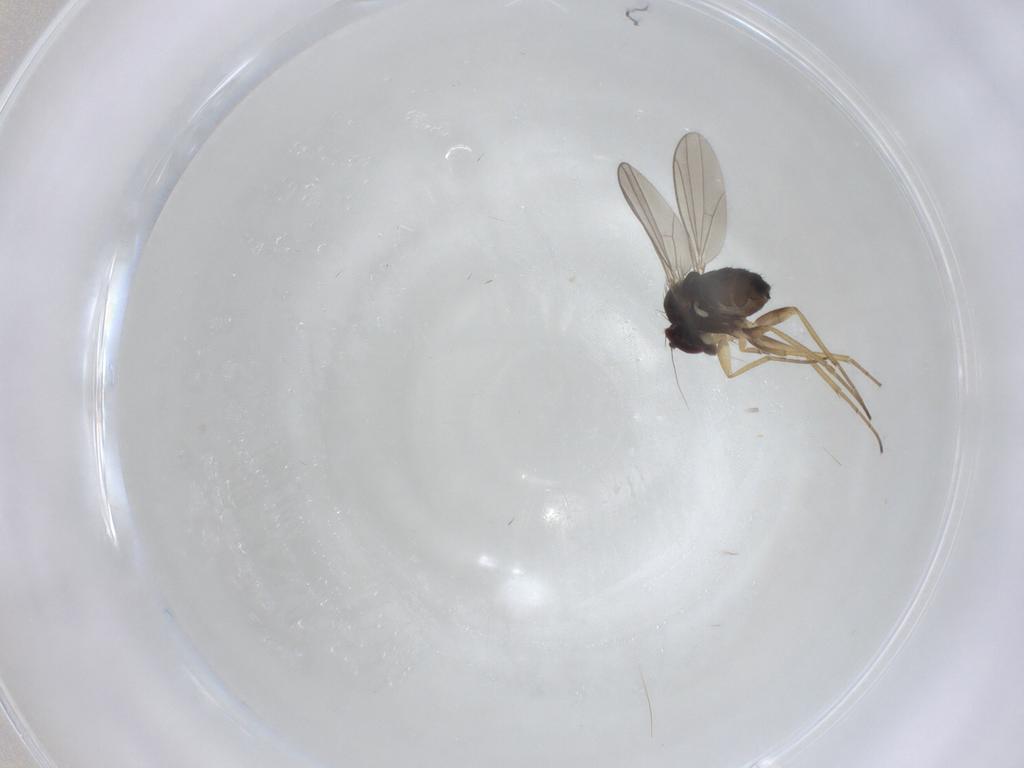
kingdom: Animalia
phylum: Arthropoda
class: Insecta
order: Diptera
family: Dolichopodidae
